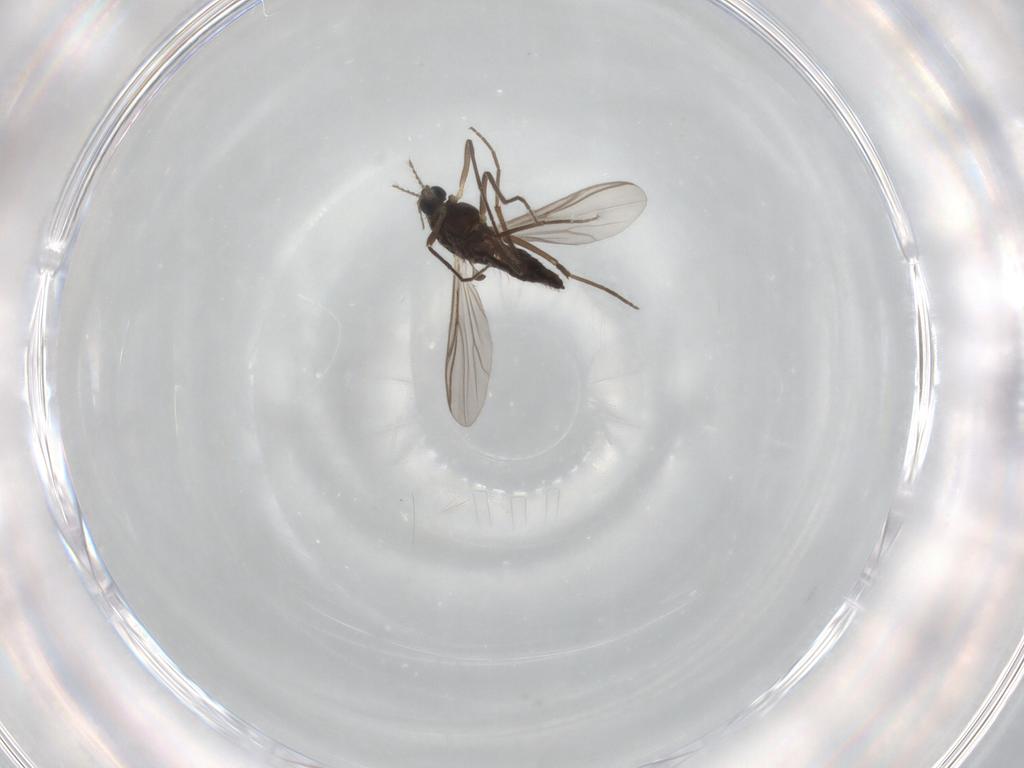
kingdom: Animalia
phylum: Arthropoda
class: Insecta
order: Diptera
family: Chironomidae
